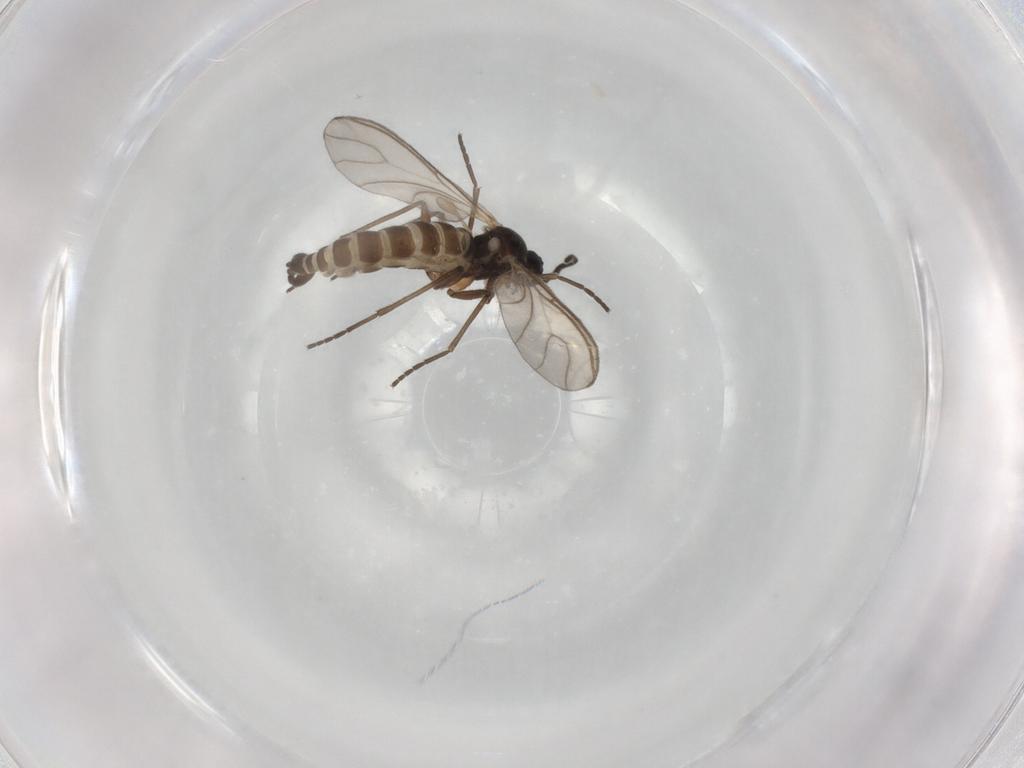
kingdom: Animalia
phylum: Arthropoda
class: Insecta
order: Diptera
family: Sciaridae
